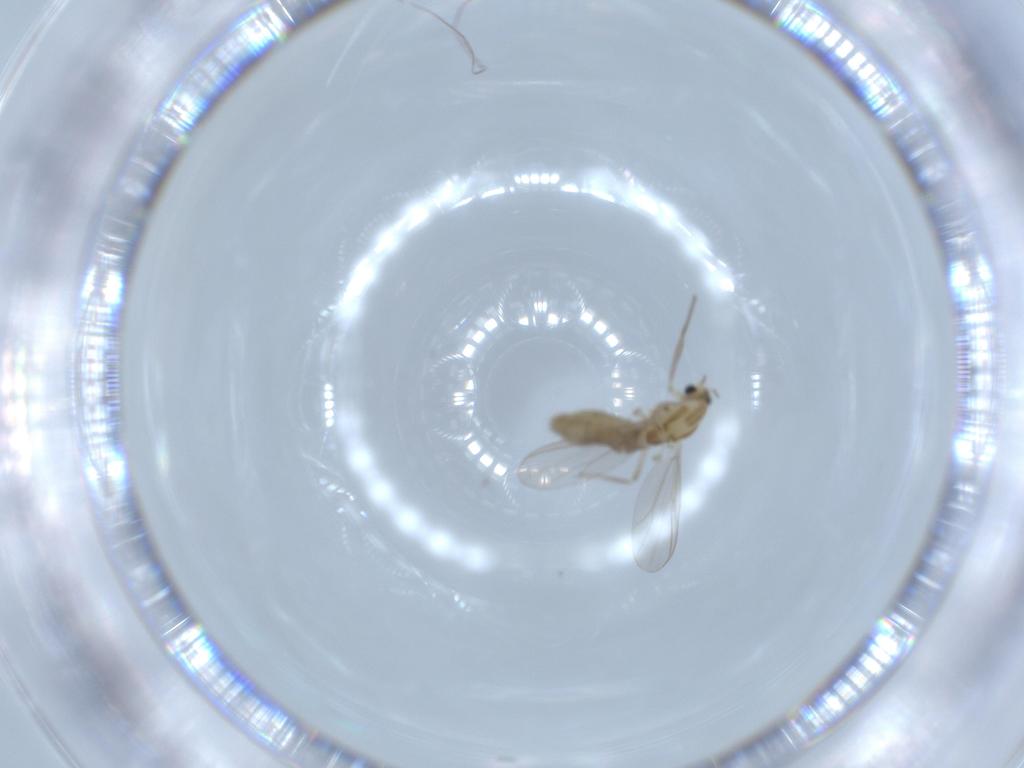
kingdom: Animalia
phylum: Arthropoda
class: Insecta
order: Diptera
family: Chironomidae
